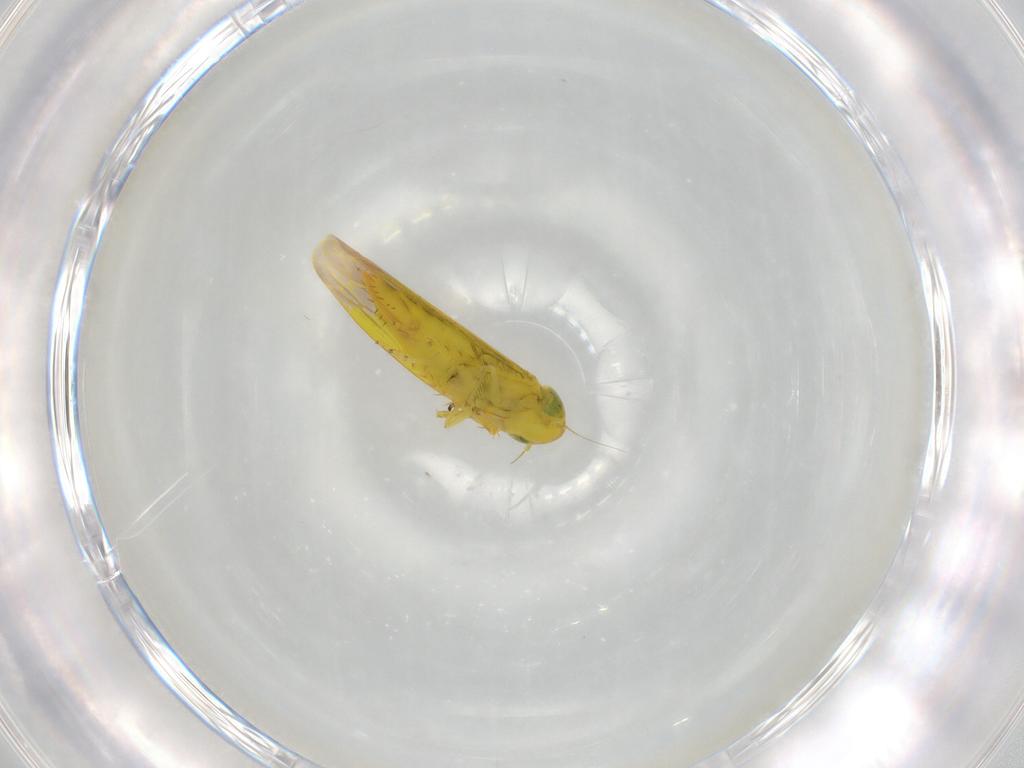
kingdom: Animalia
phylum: Arthropoda
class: Insecta
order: Hemiptera
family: Cicadellidae
